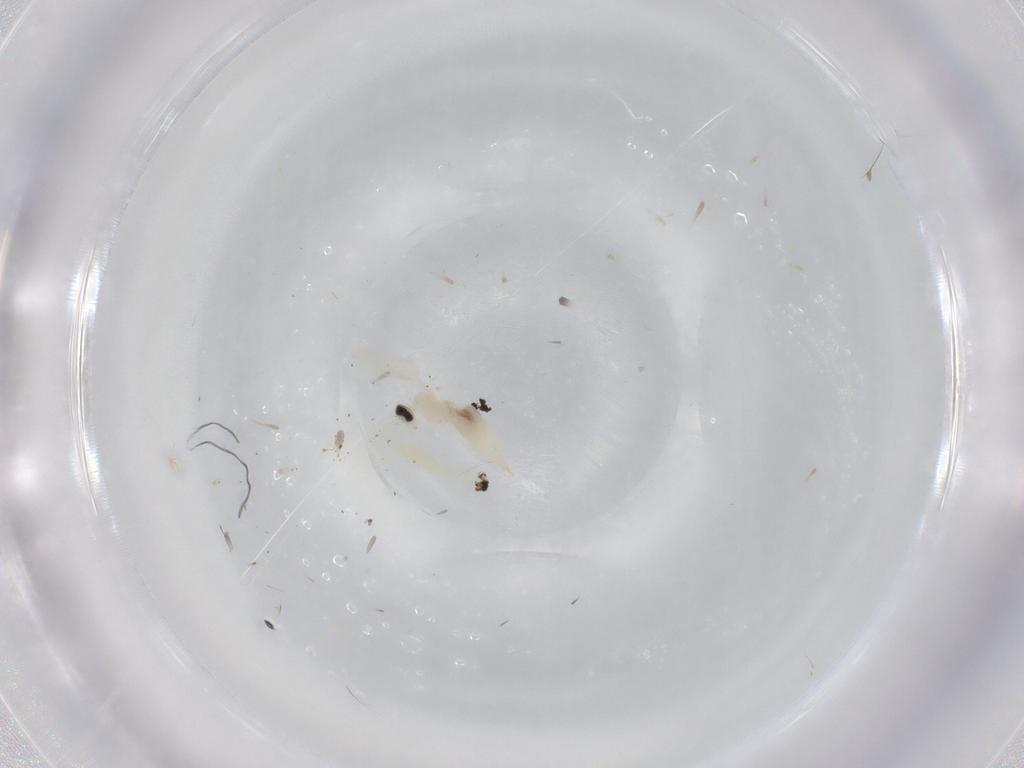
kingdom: Animalia
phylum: Arthropoda
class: Insecta
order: Diptera
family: Cecidomyiidae
